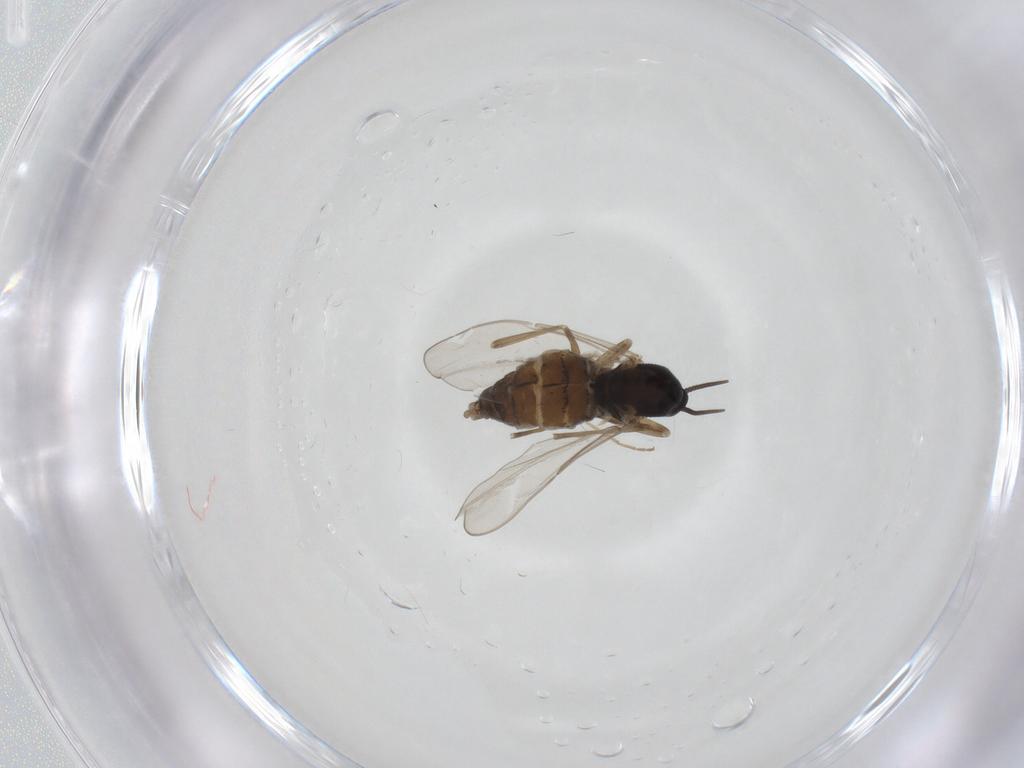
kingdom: Animalia
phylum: Arthropoda
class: Insecta
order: Diptera
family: Cecidomyiidae
